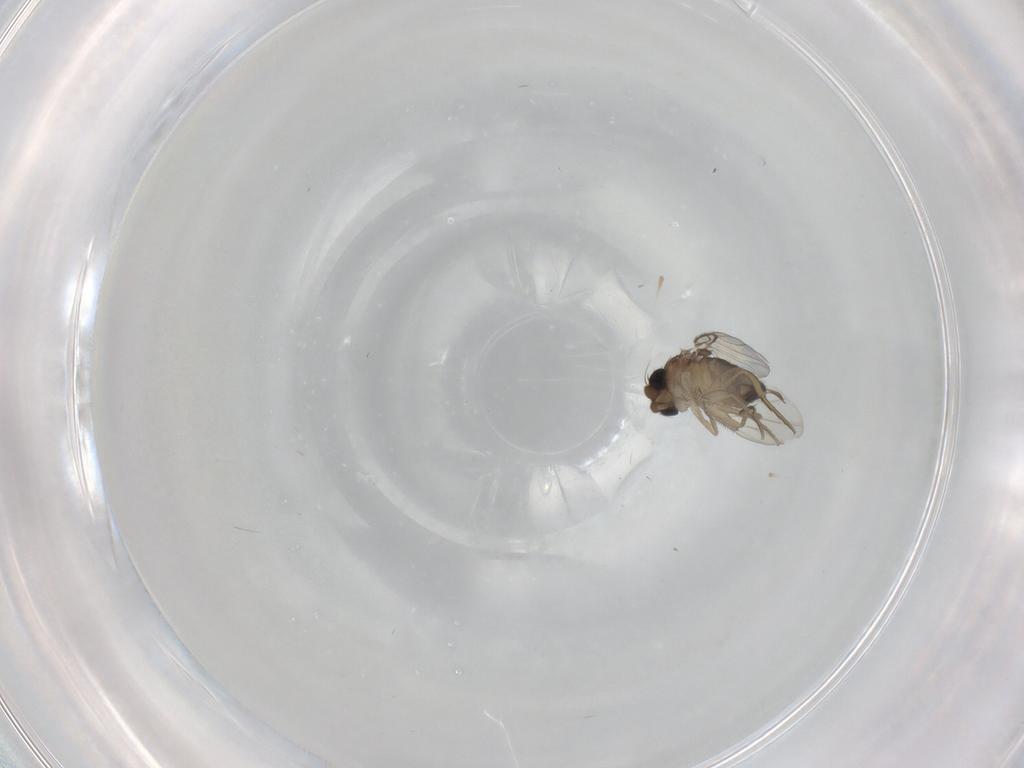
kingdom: Animalia
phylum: Arthropoda
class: Insecta
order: Diptera
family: Phoridae
